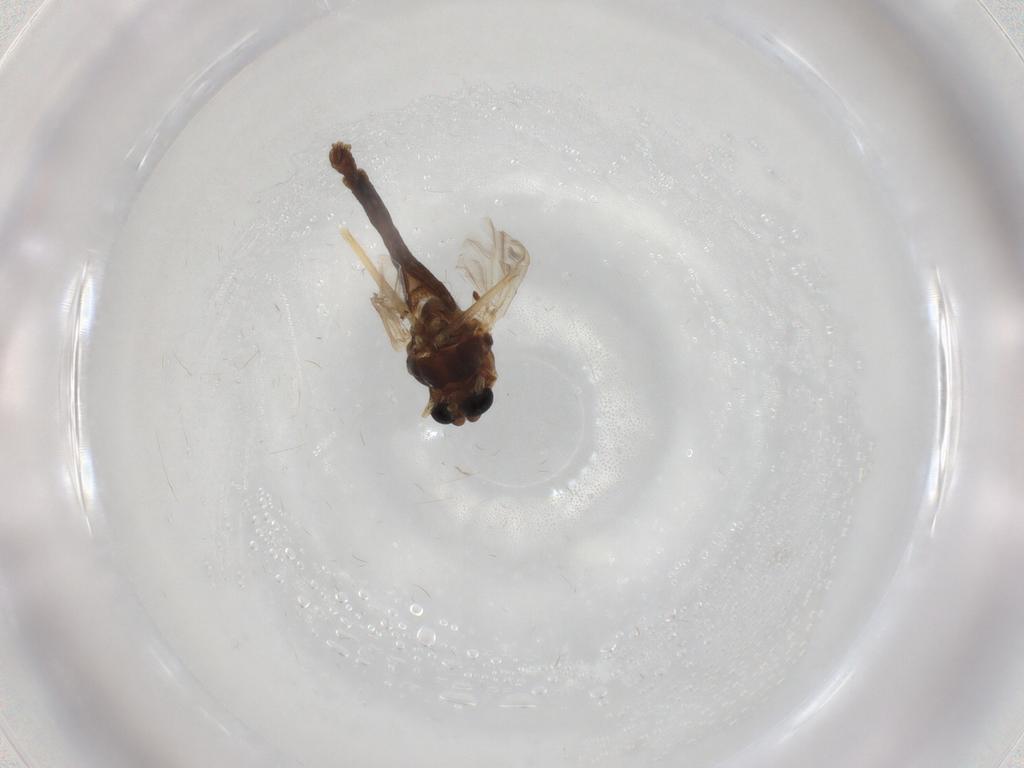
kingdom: Animalia
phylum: Arthropoda
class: Insecta
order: Diptera
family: Chironomidae
